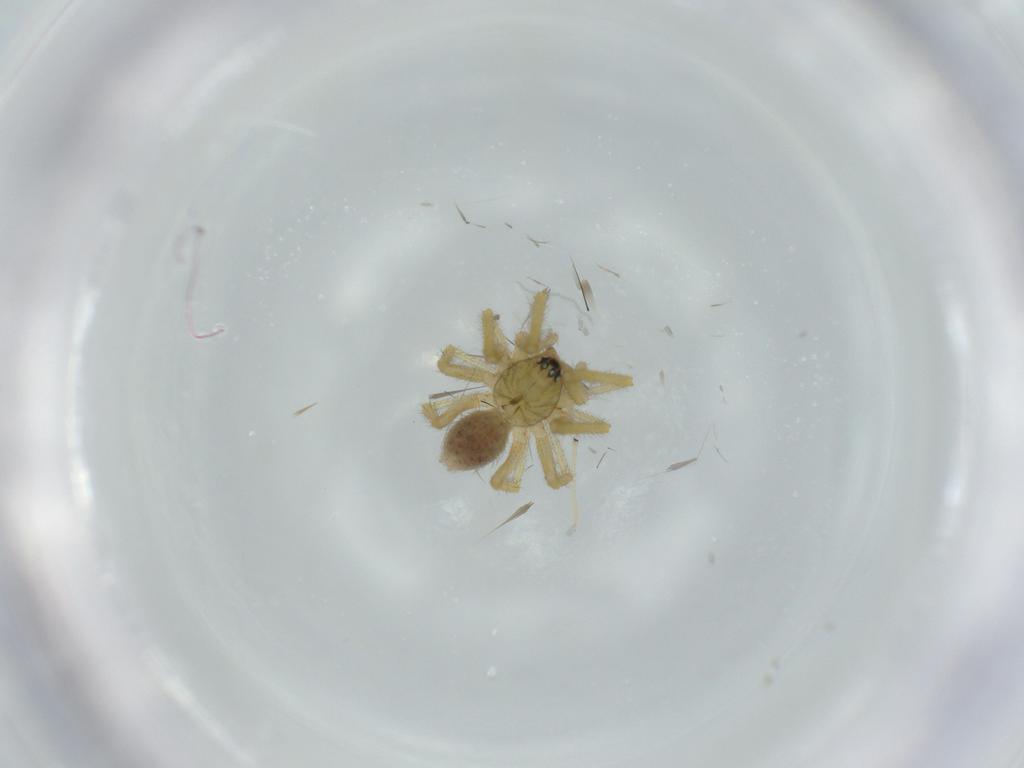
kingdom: Animalia
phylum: Arthropoda
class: Arachnida
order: Araneae
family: Linyphiidae
